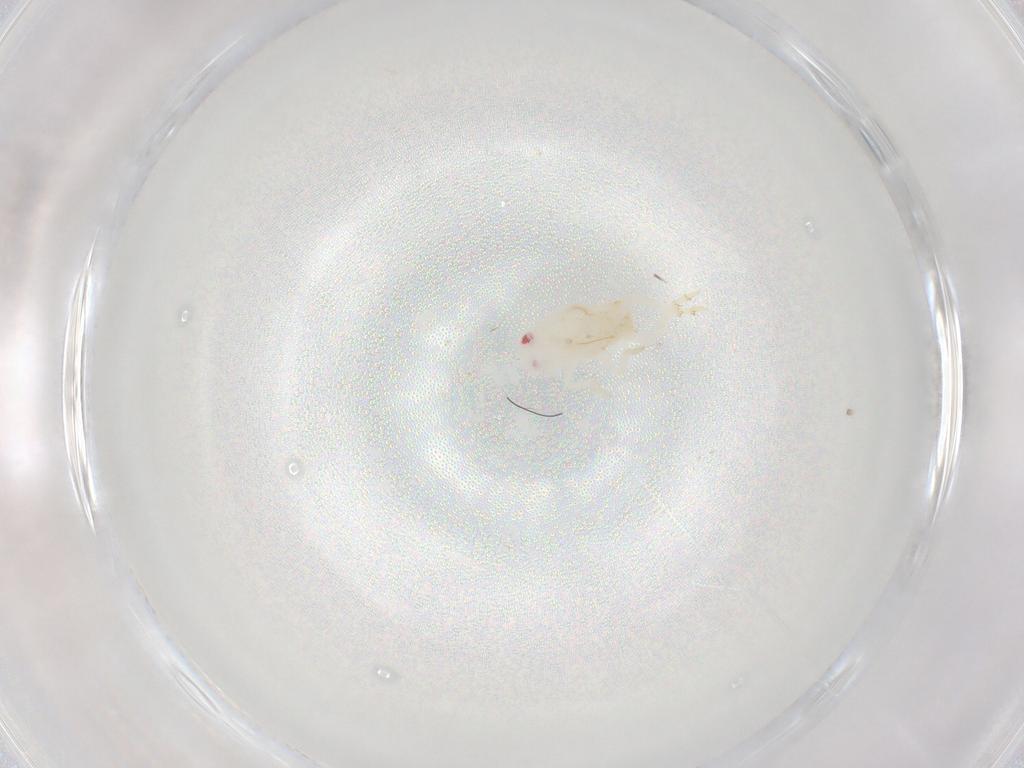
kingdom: Animalia
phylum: Arthropoda
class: Insecta
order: Hemiptera
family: Flatidae
